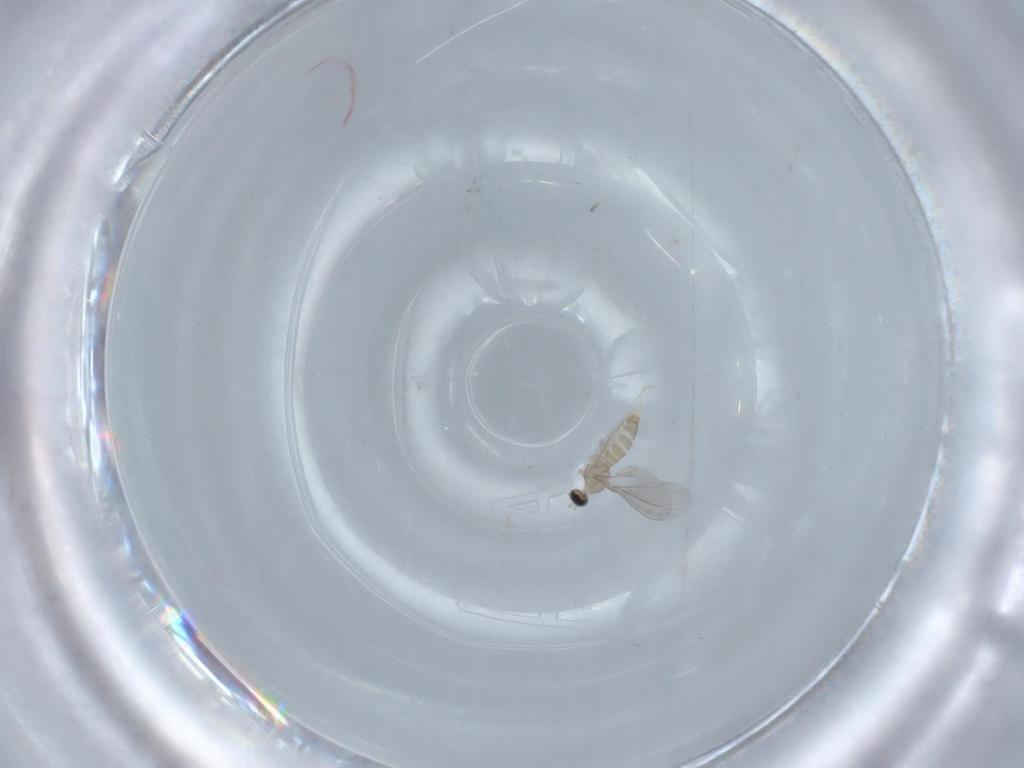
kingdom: Animalia
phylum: Arthropoda
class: Insecta
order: Diptera
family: Cecidomyiidae
